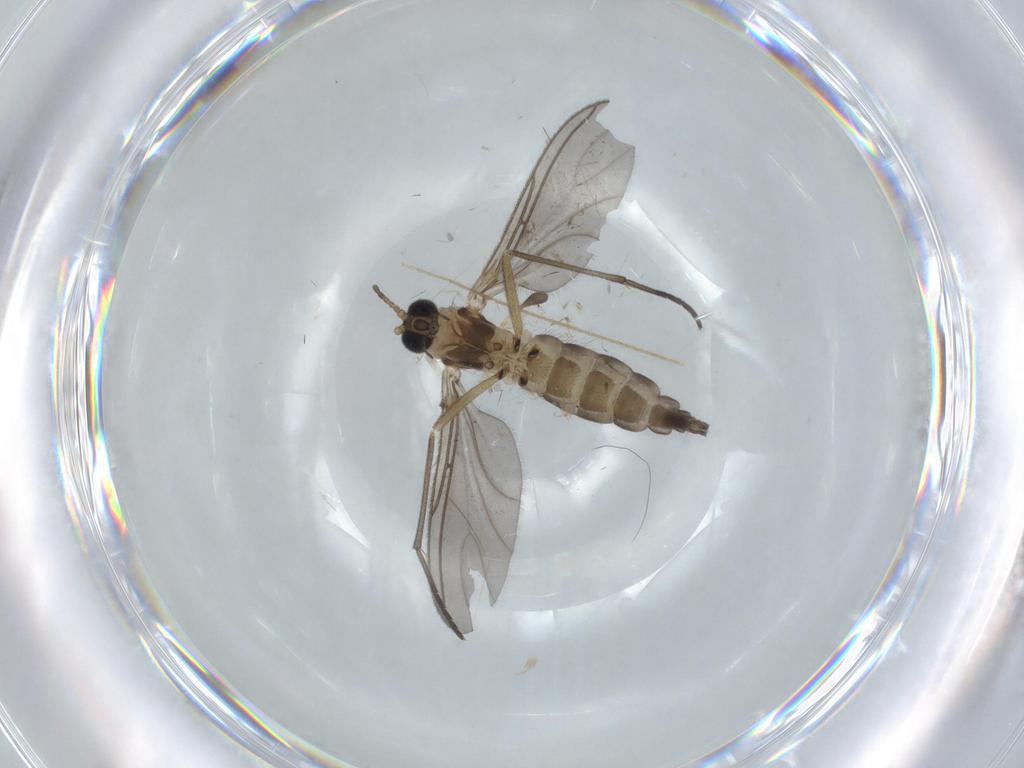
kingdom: Animalia
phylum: Arthropoda
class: Insecta
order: Diptera
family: Sciaridae
